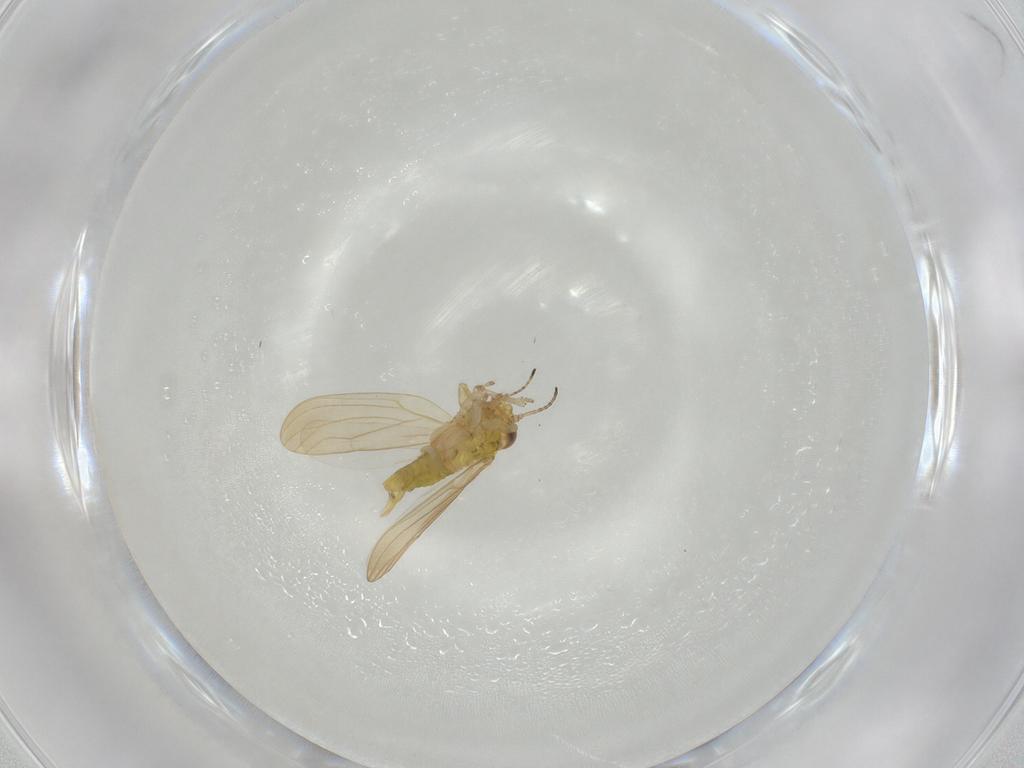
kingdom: Animalia
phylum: Arthropoda
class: Insecta
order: Hemiptera
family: Aphalaridae
